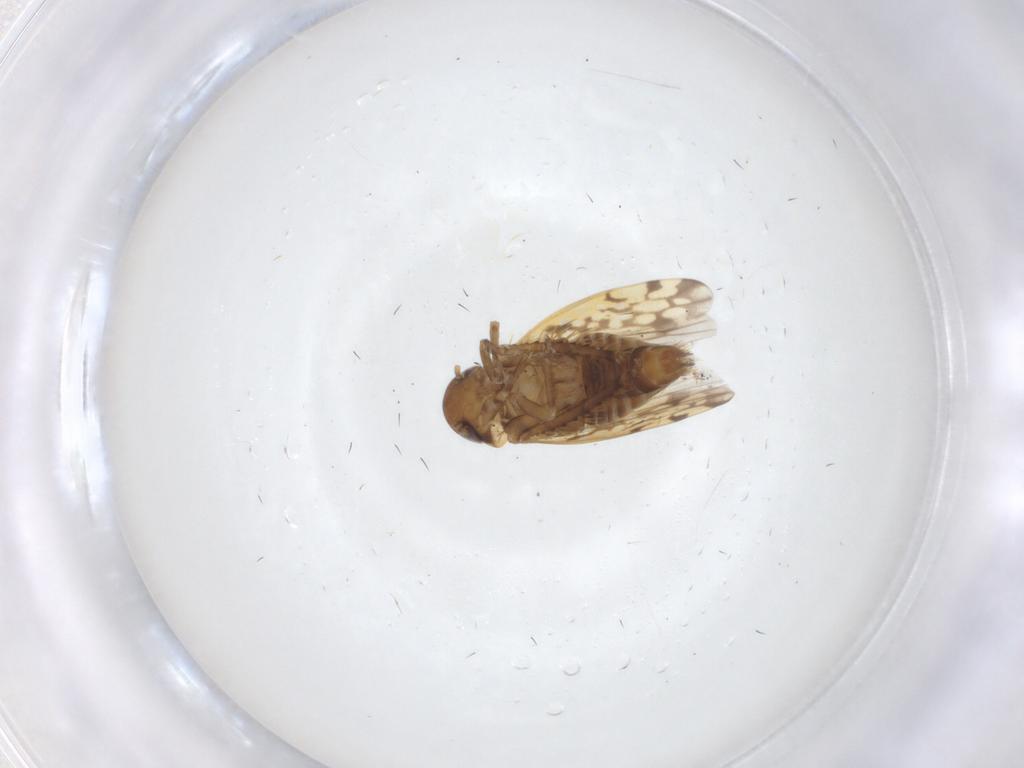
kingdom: Animalia
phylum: Arthropoda
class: Insecta
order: Hemiptera
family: Cicadellidae
